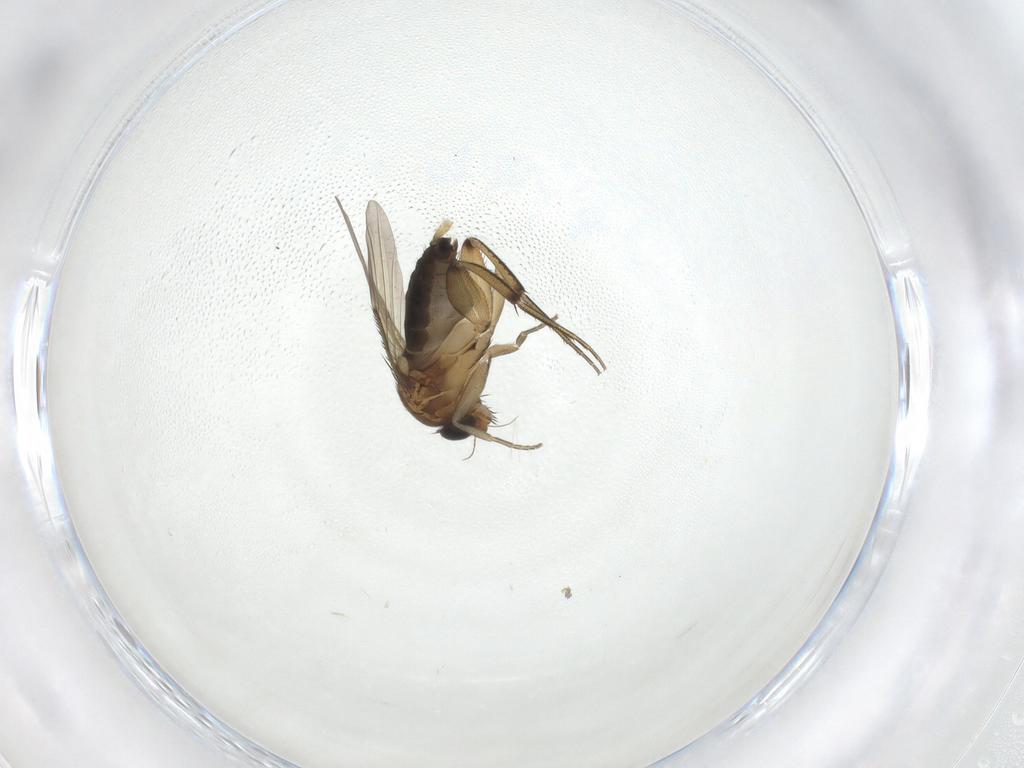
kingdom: Animalia
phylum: Arthropoda
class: Insecta
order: Diptera
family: Phoridae
